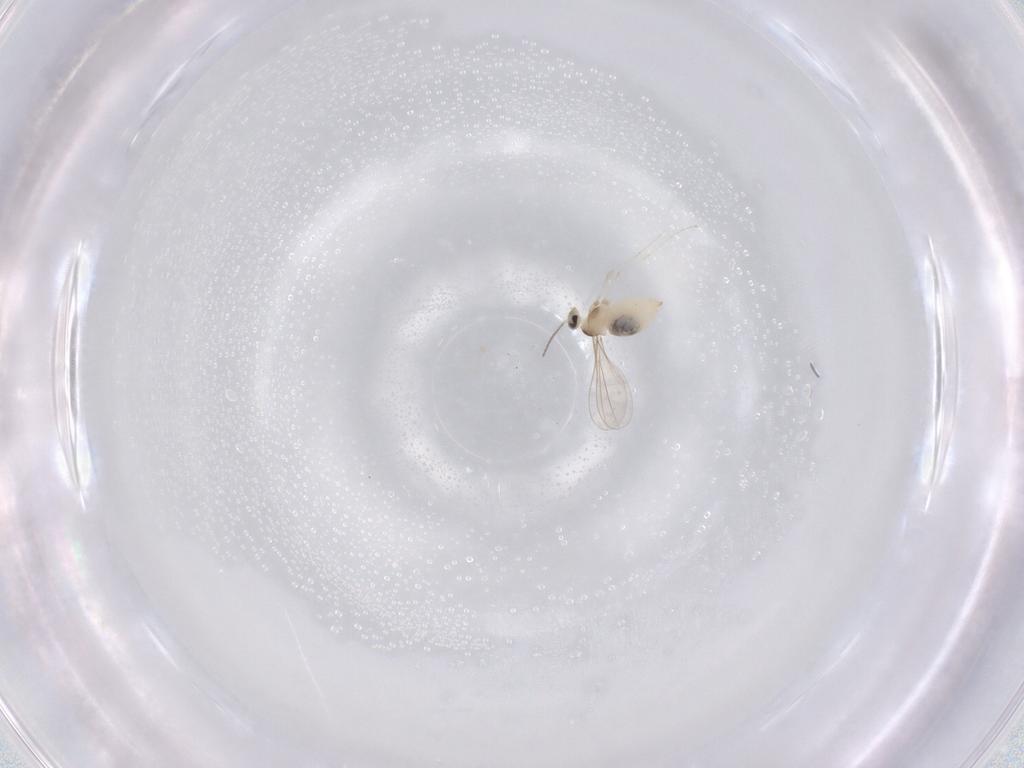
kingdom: Animalia
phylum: Arthropoda
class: Insecta
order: Diptera
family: Cecidomyiidae
